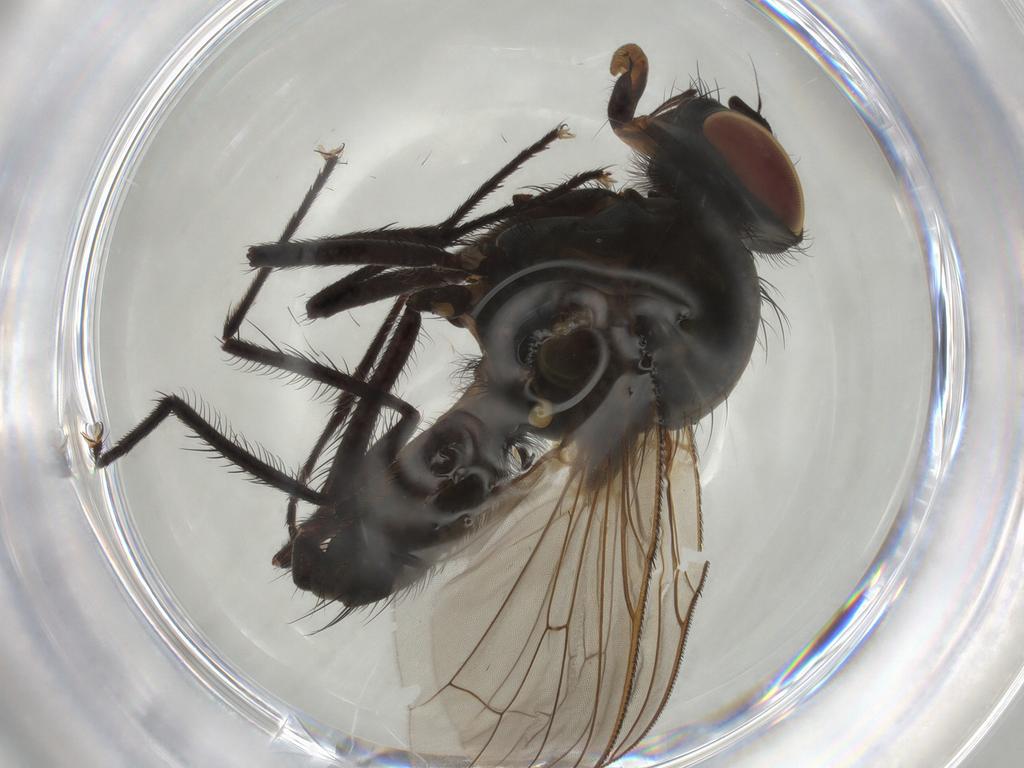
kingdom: Animalia
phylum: Arthropoda
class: Insecta
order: Diptera
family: Anthomyiidae
